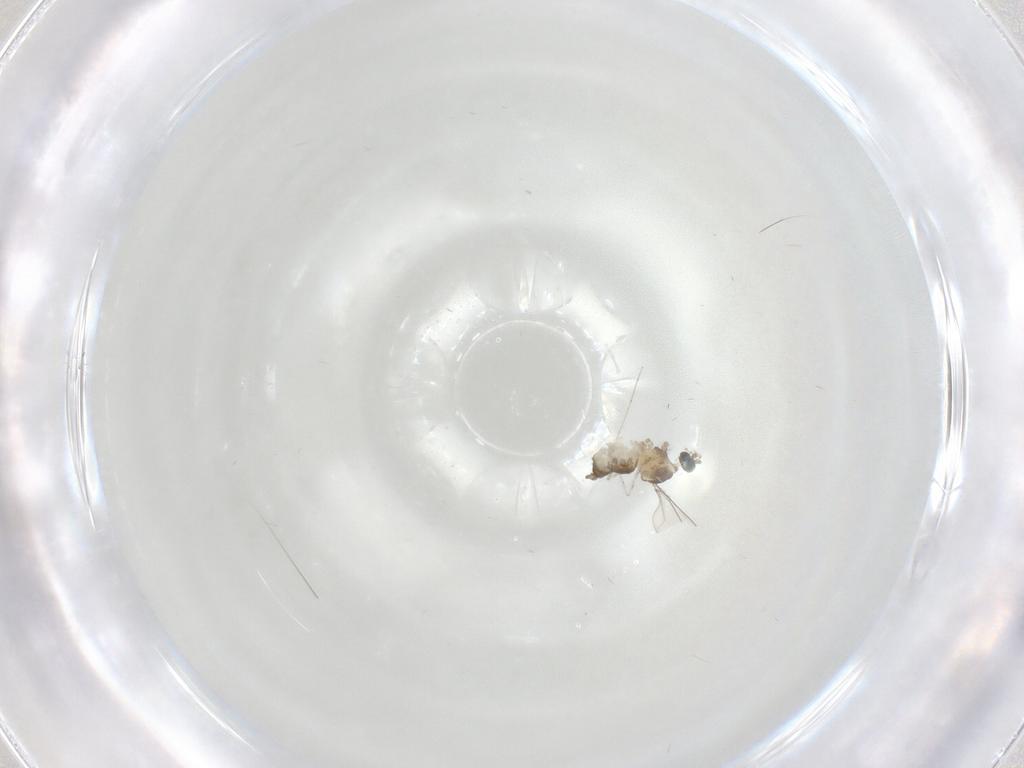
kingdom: Animalia
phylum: Arthropoda
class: Insecta
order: Diptera
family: Cecidomyiidae
